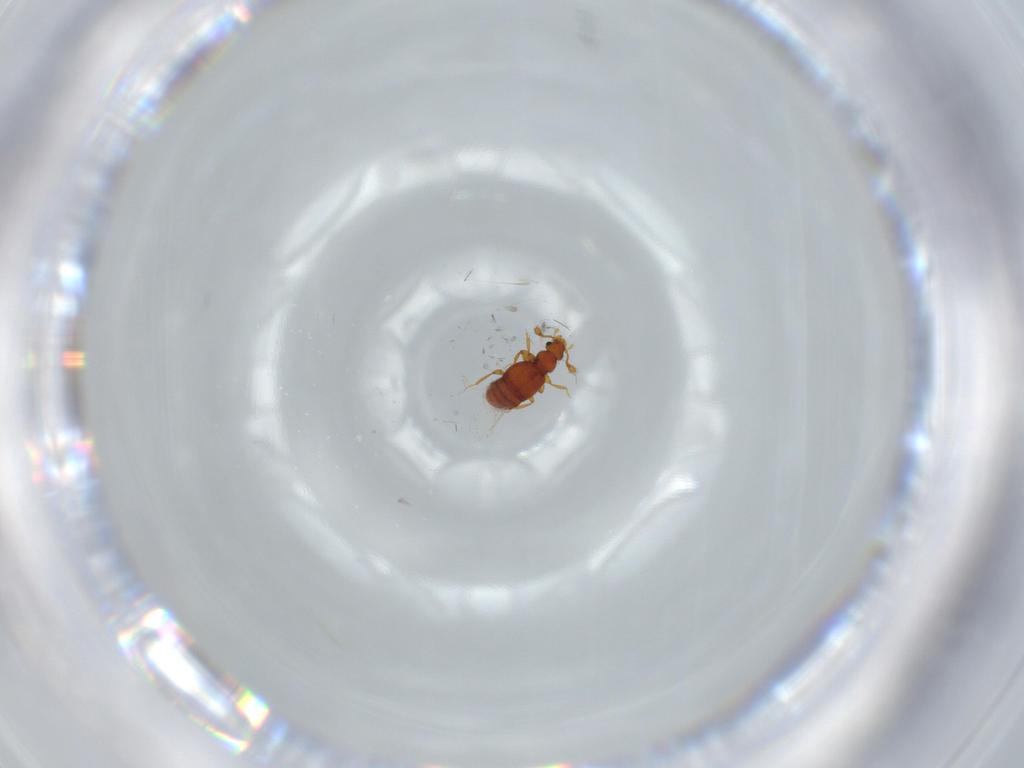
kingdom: Animalia
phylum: Arthropoda
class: Insecta
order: Coleoptera
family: Staphylinidae
